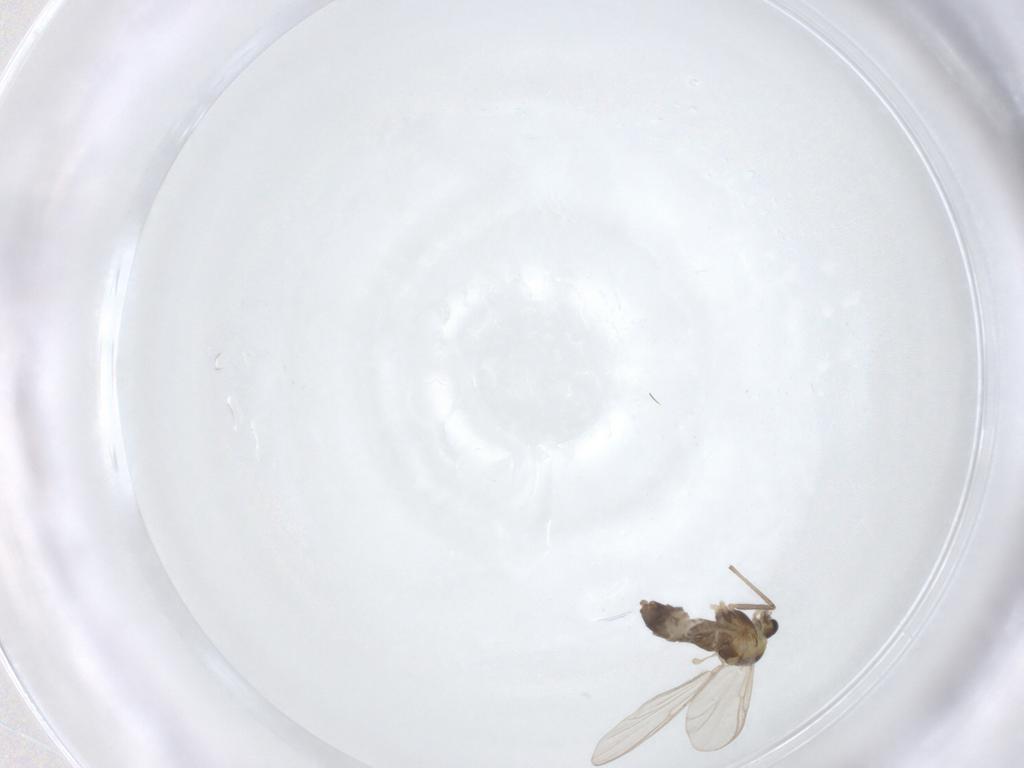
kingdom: Animalia
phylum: Arthropoda
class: Insecta
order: Diptera
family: Chironomidae
